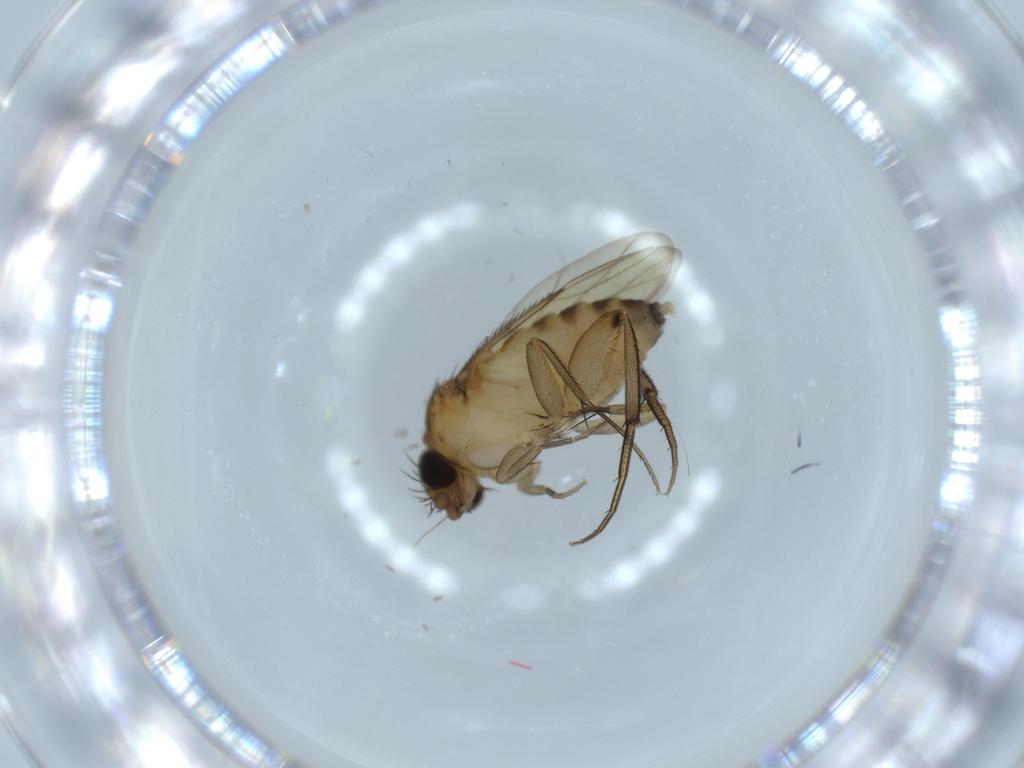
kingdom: Animalia
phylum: Arthropoda
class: Insecta
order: Diptera
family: Phoridae
